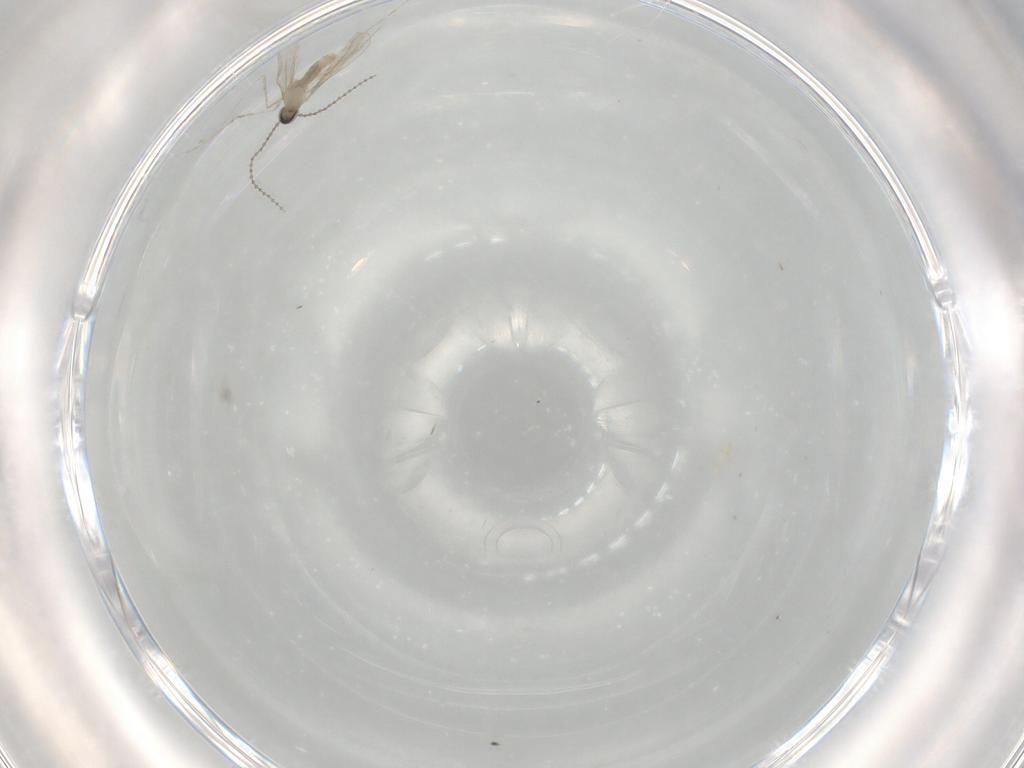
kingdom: Animalia
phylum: Arthropoda
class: Insecta
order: Diptera
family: Cecidomyiidae
